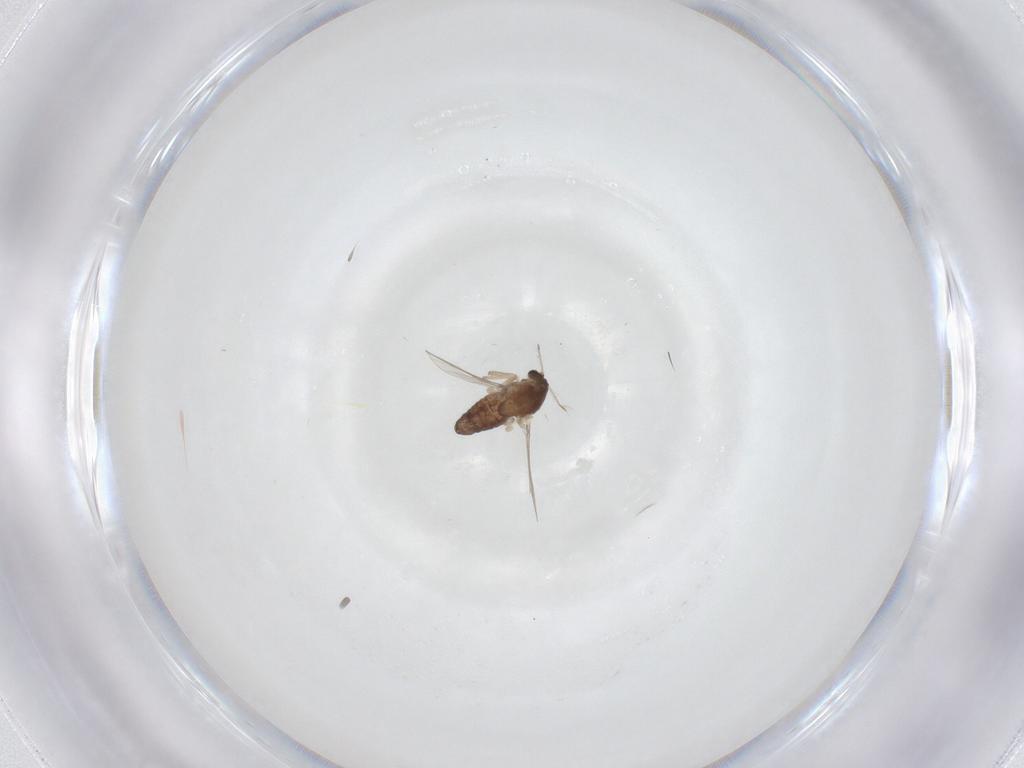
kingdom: Animalia
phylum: Arthropoda
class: Insecta
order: Diptera
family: Chironomidae
